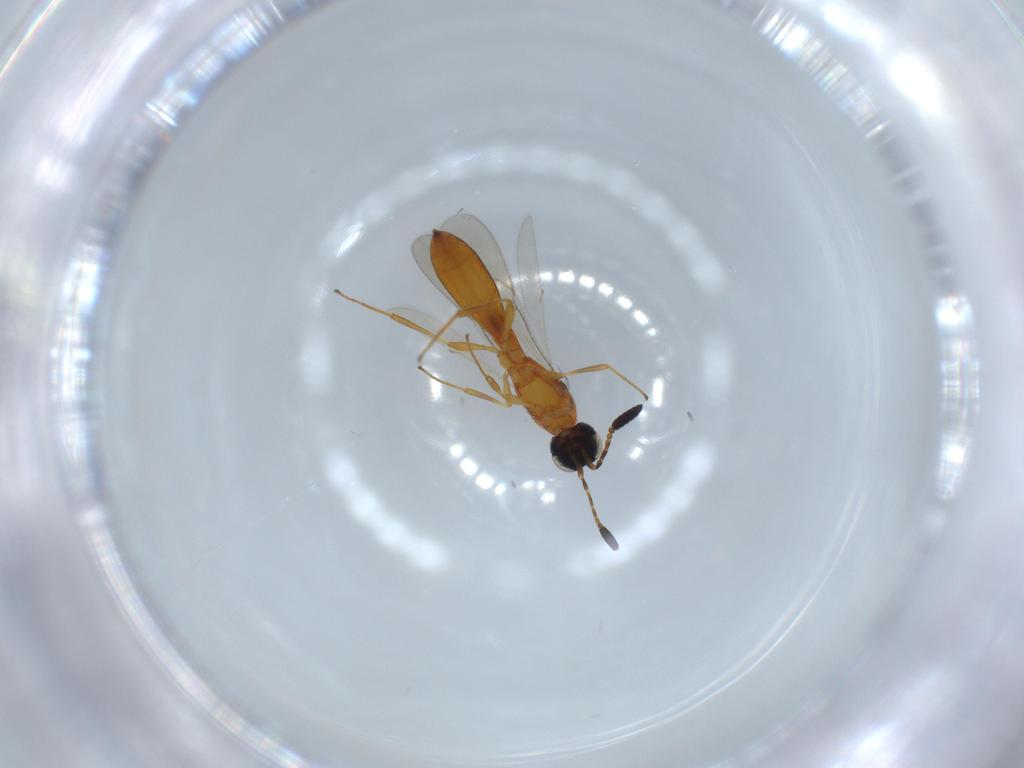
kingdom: Animalia
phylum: Arthropoda
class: Insecta
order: Hymenoptera
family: Scelionidae
